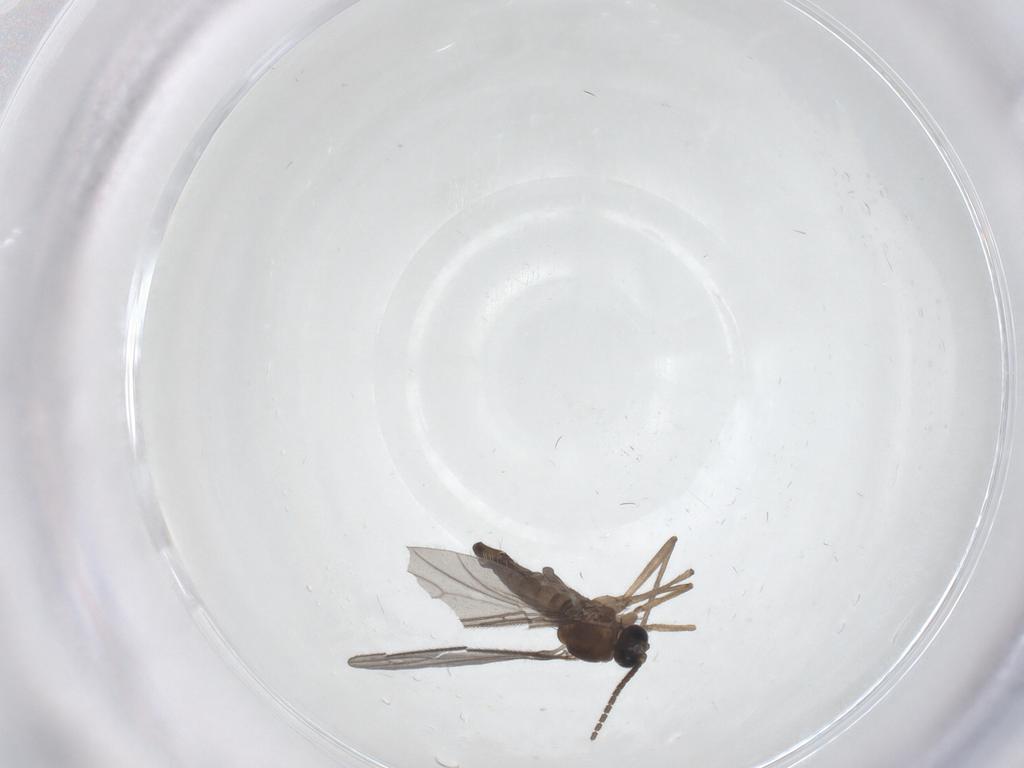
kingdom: Animalia
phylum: Arthropoda
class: Insecta
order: Diptera
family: Sciaridae
